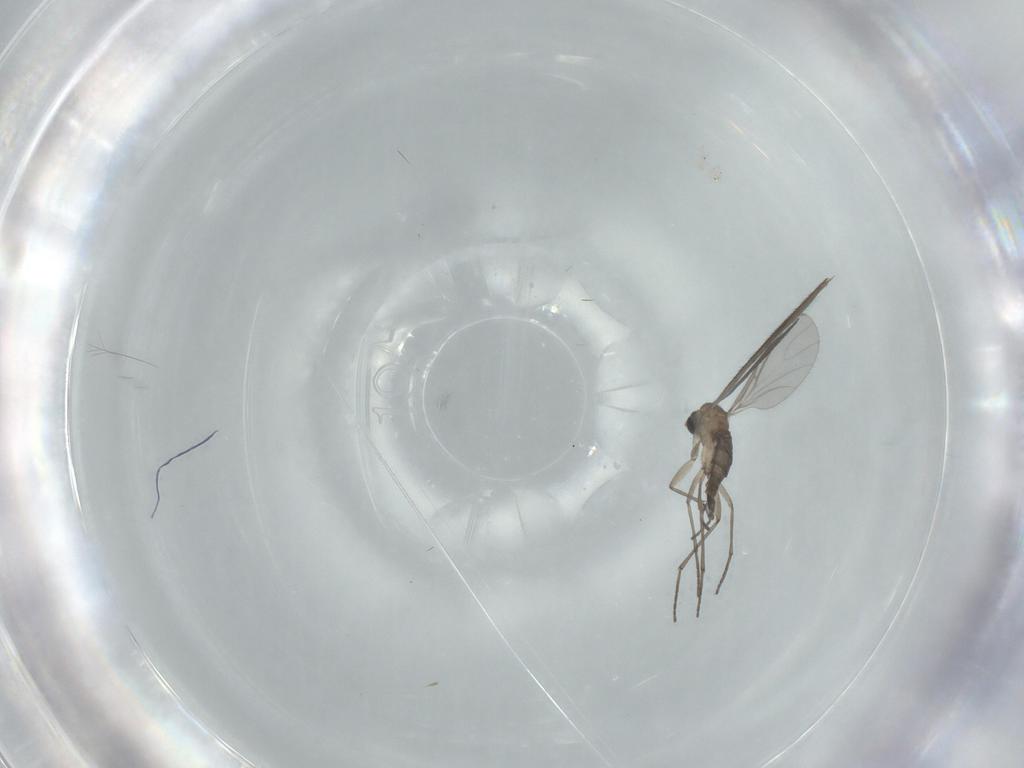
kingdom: Animalia
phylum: Arthropoda
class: Insecta
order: Diptera
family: Sciaridae
